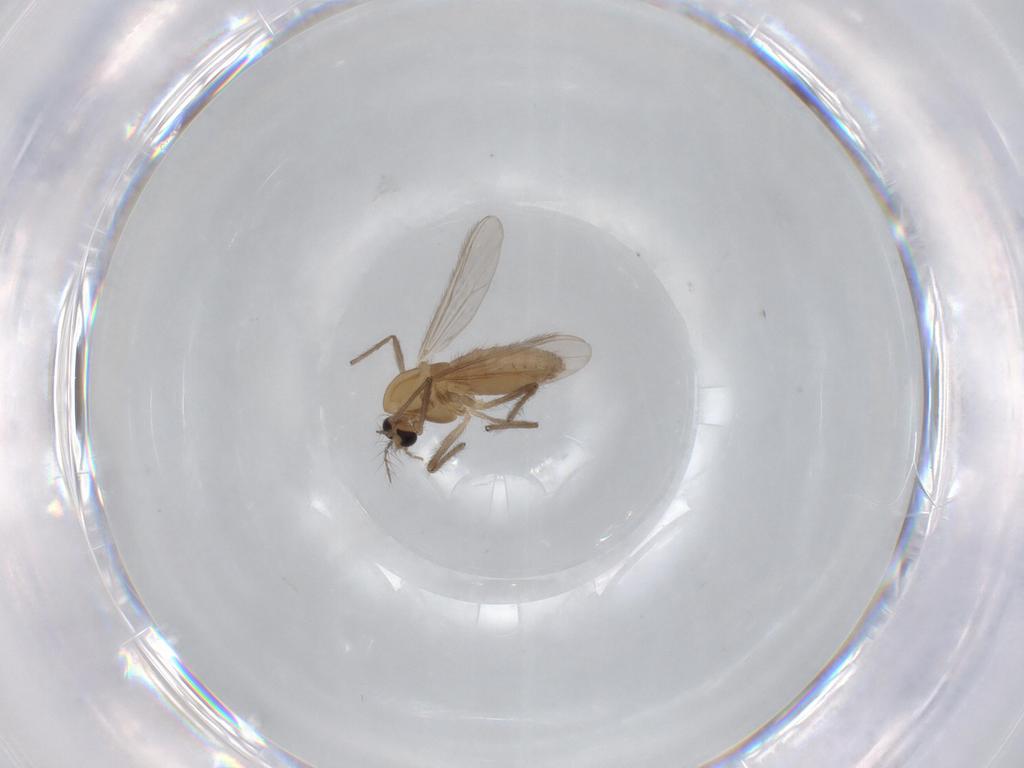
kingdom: Animalia
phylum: Arthropoda
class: Insecta
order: Diptera
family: Chironomidae
